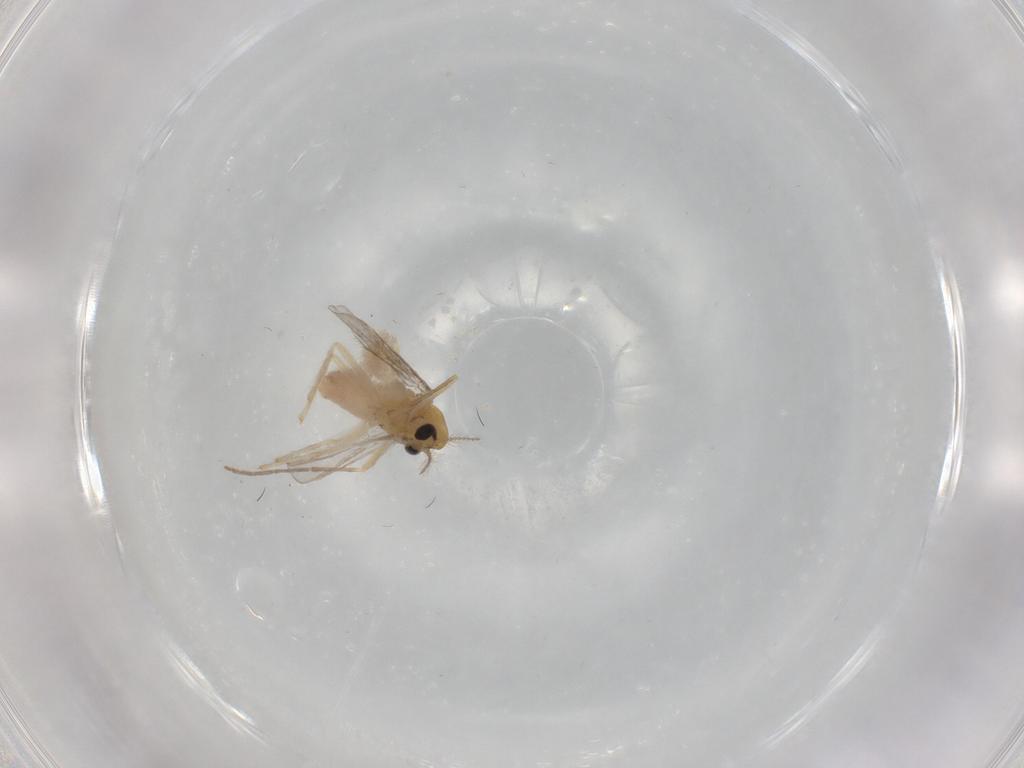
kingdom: Animalia
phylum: Arthropoda
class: Insecta
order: Diptera
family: Chironomidae
